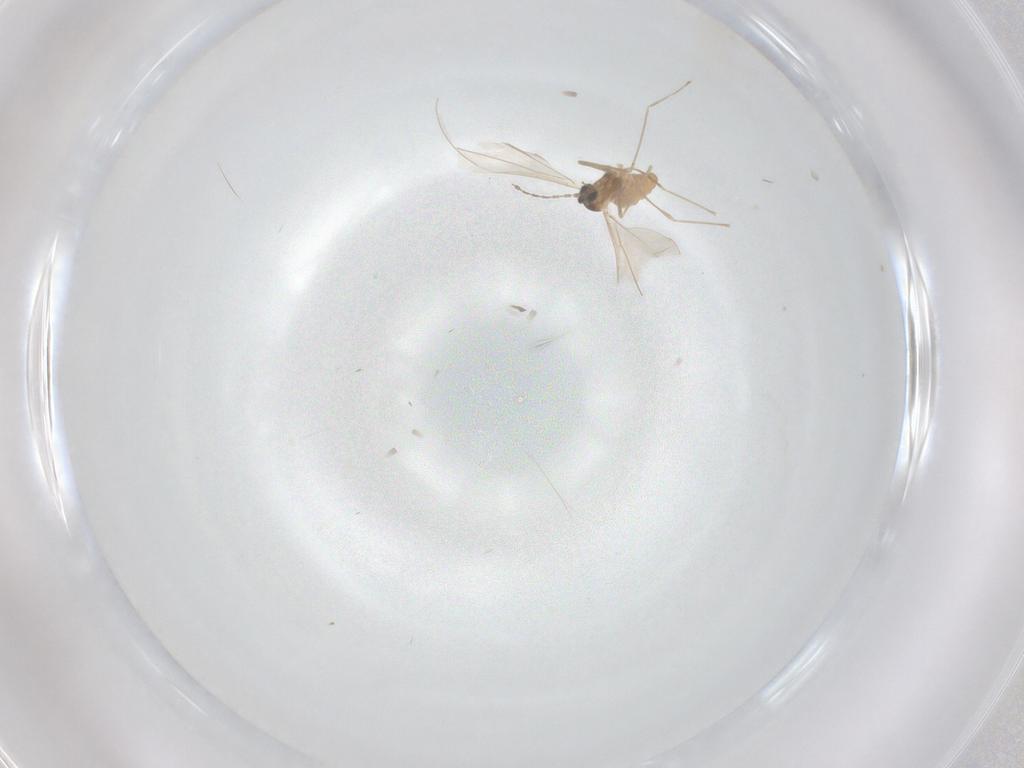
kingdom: Animalia
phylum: Arthropoda
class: Insecta
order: Diptera
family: Cecidomyiidae
